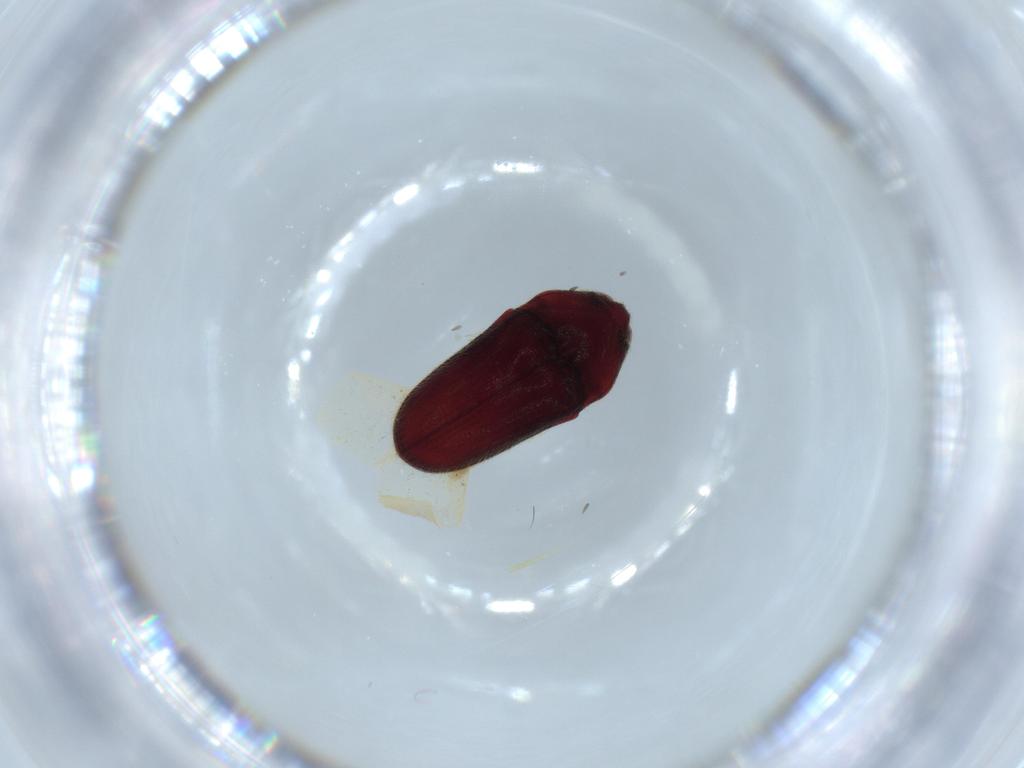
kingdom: Animalia
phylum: Arthropoda
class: Insecta
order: Coleoptera
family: Throscidae
